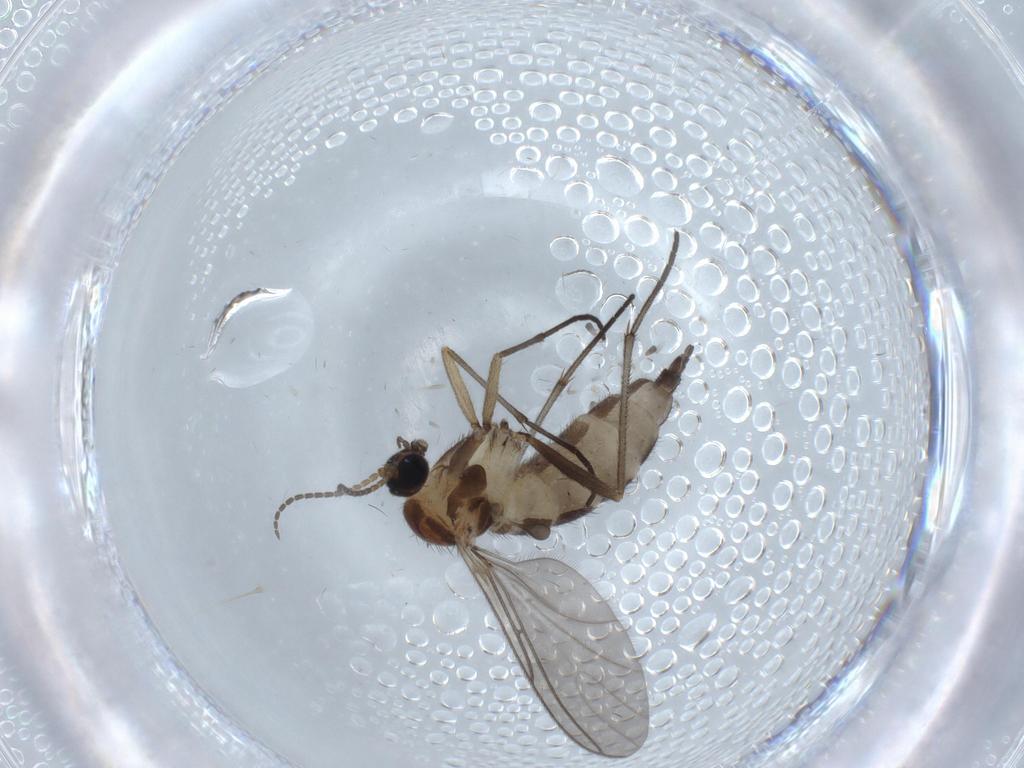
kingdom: Animalia
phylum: Arthropoda
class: Insecta
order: Diptera
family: Sciaridae
